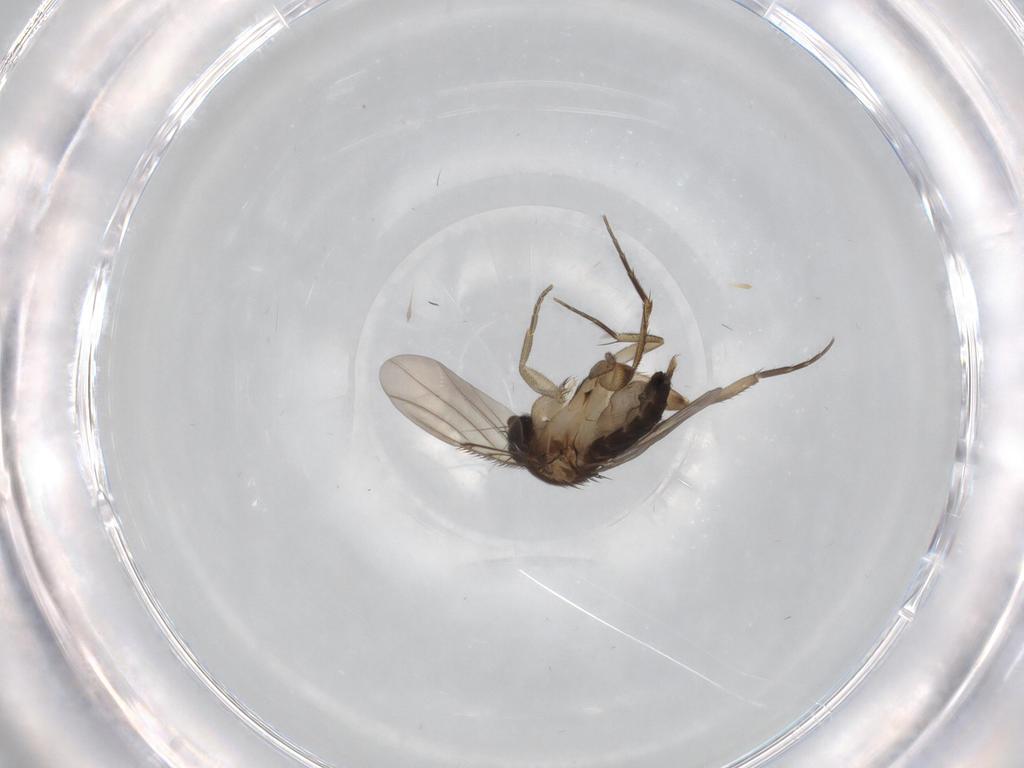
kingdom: Animalia
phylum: Arthropoda
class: Insecta
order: Diptera
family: Phoridae
